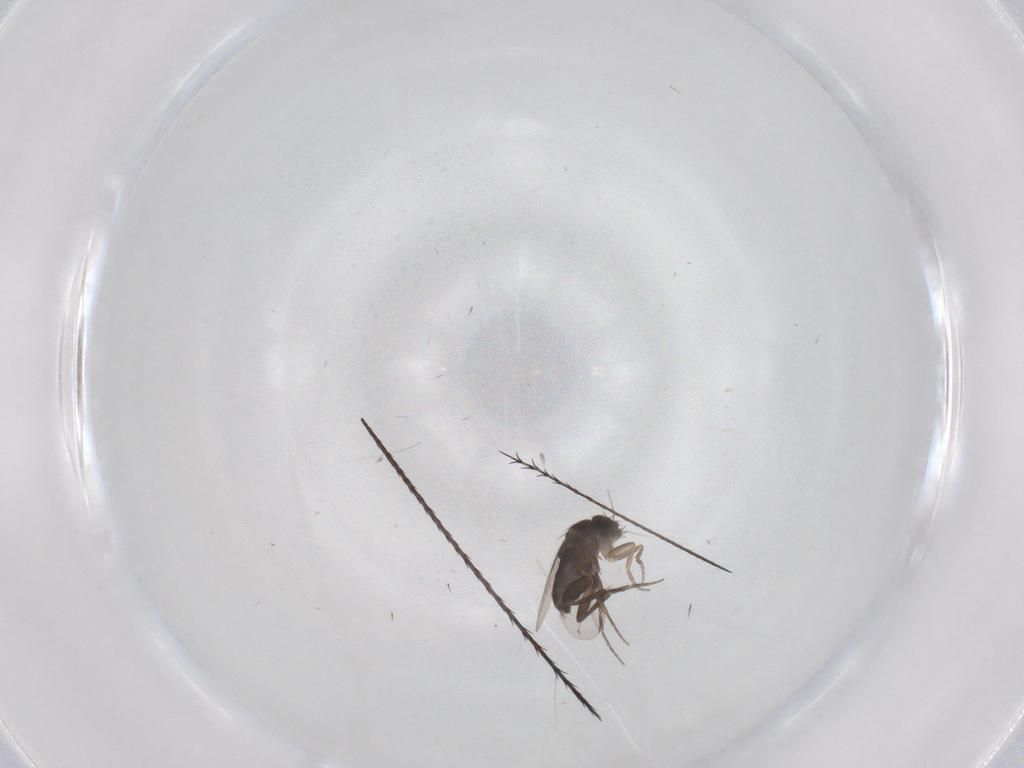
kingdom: Animalia
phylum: Arthropoda
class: Insecta
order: Diptera
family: Phoridae
